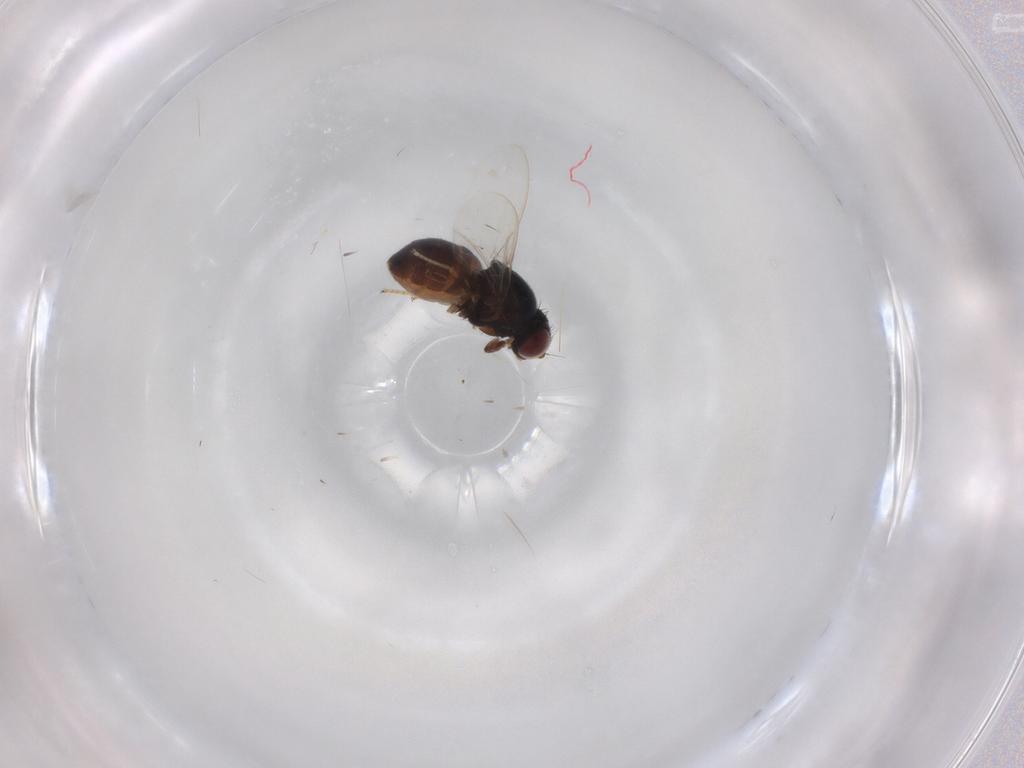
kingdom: Animalia
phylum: Arthropoda
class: Insecta
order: Diptera
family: Chloropidae
